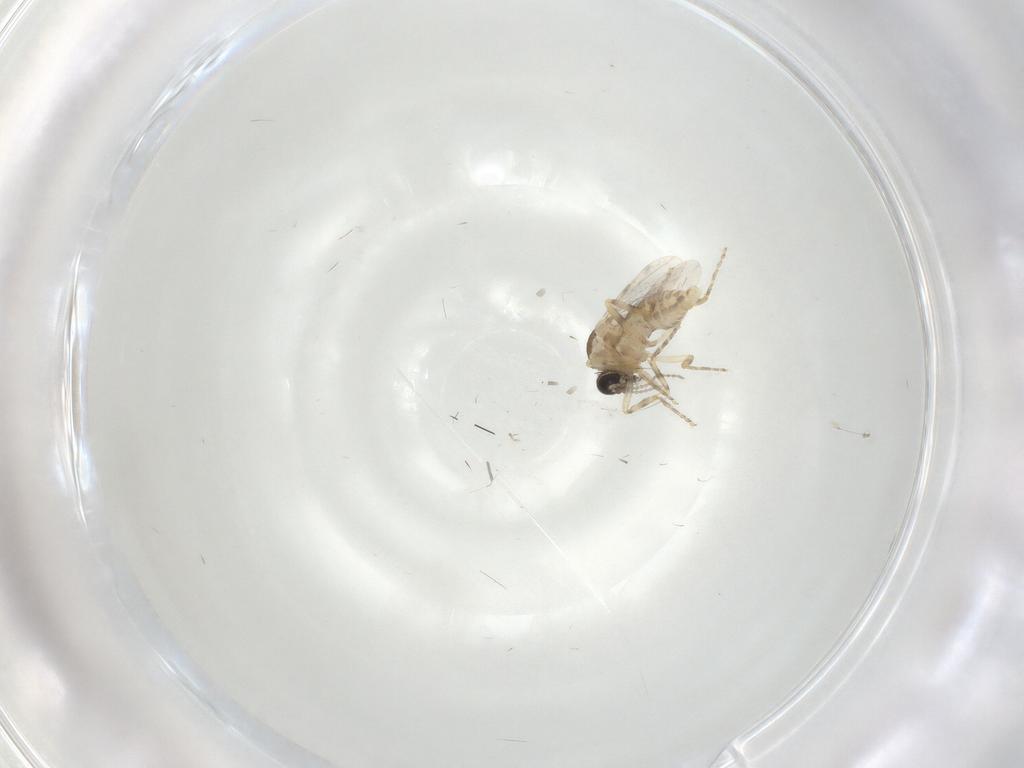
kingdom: Animalia
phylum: Arthropoda
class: Insecta
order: Diptera
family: Ceratopogonidae
